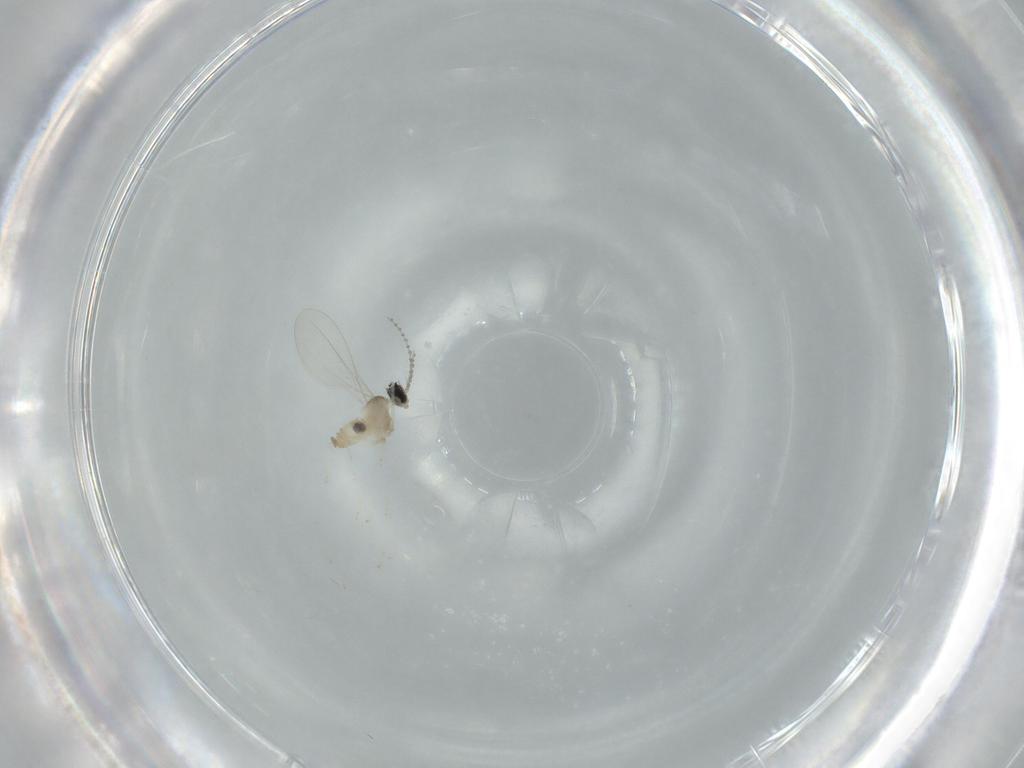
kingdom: Animalia
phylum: Arthropoda
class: Insecta
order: Diptera
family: Cecidomyiidae
